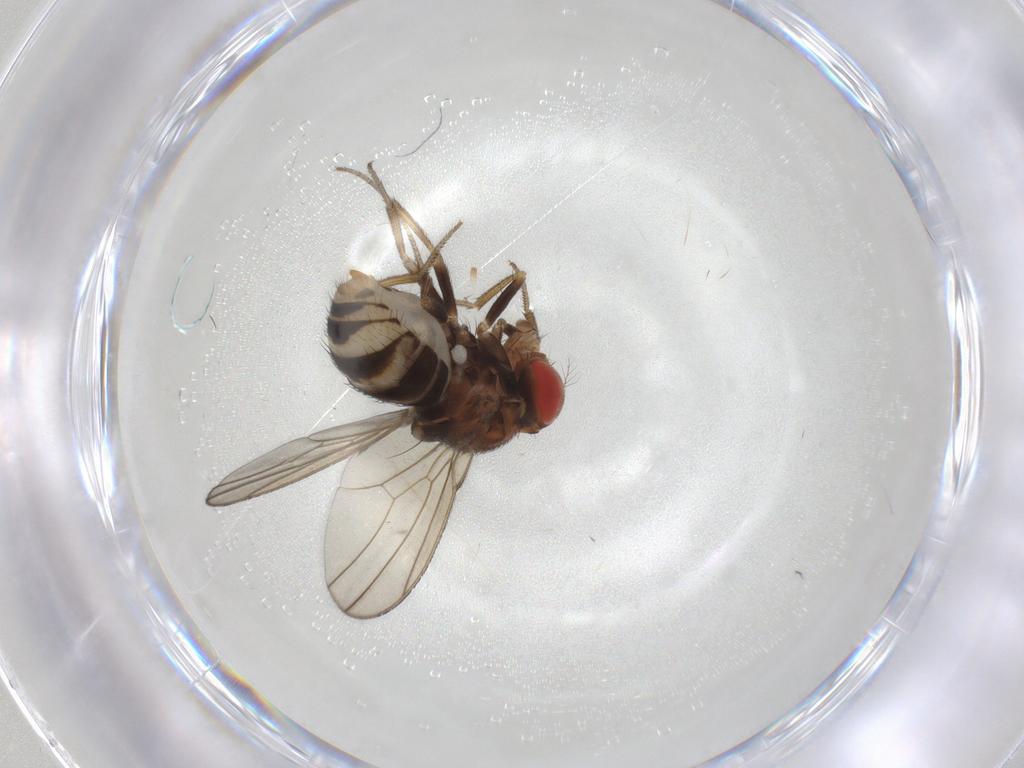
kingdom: Animalia
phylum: Arthropoda
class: Insecta
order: Diptera
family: Drosophilidae
